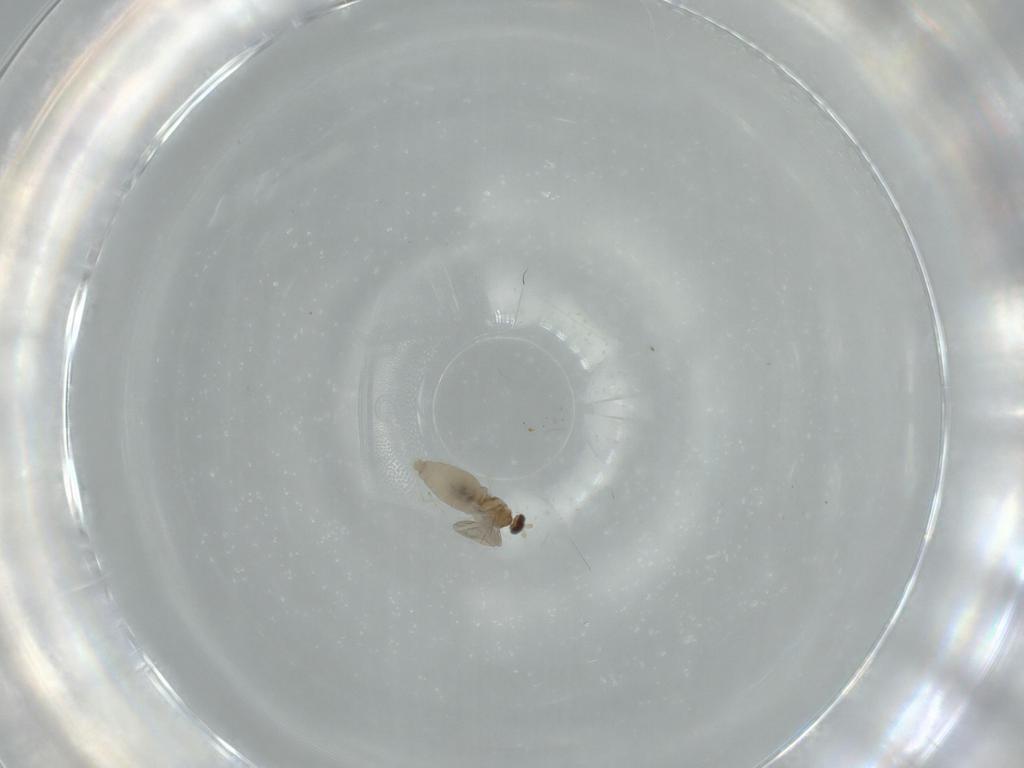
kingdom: Animalia
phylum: Arthropoda
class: Insecta
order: Diptera
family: Cecidomyiidae
